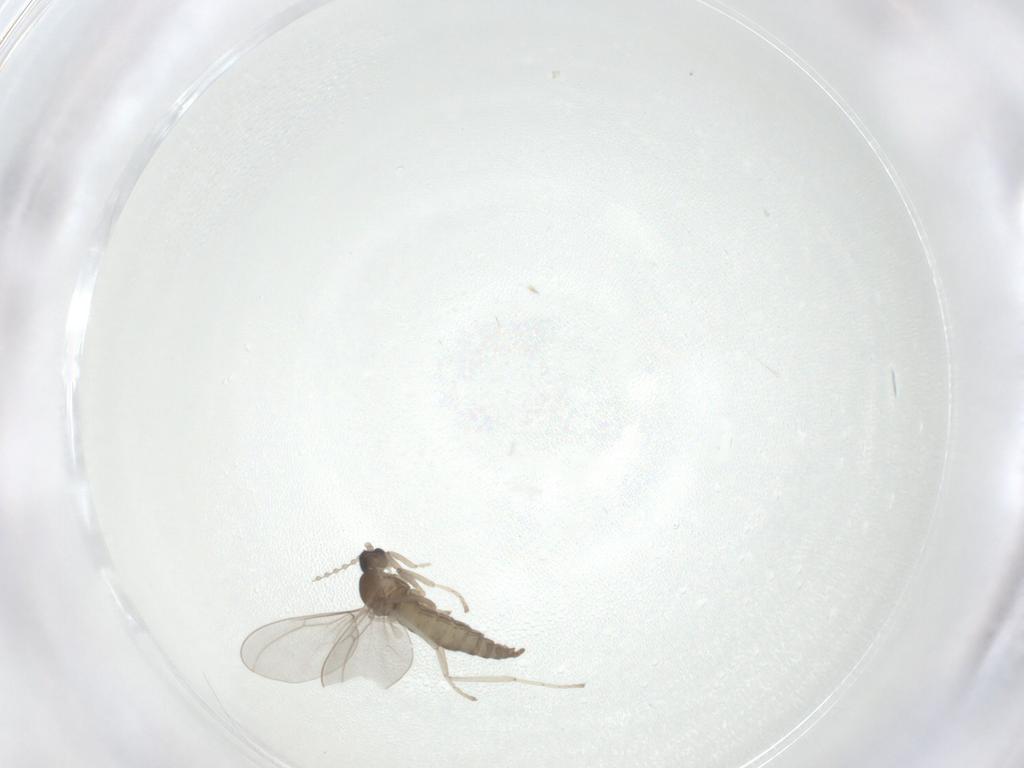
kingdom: Animalia
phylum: Arthropoda
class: Insecta
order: Diptera
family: Cecidomyiidae
